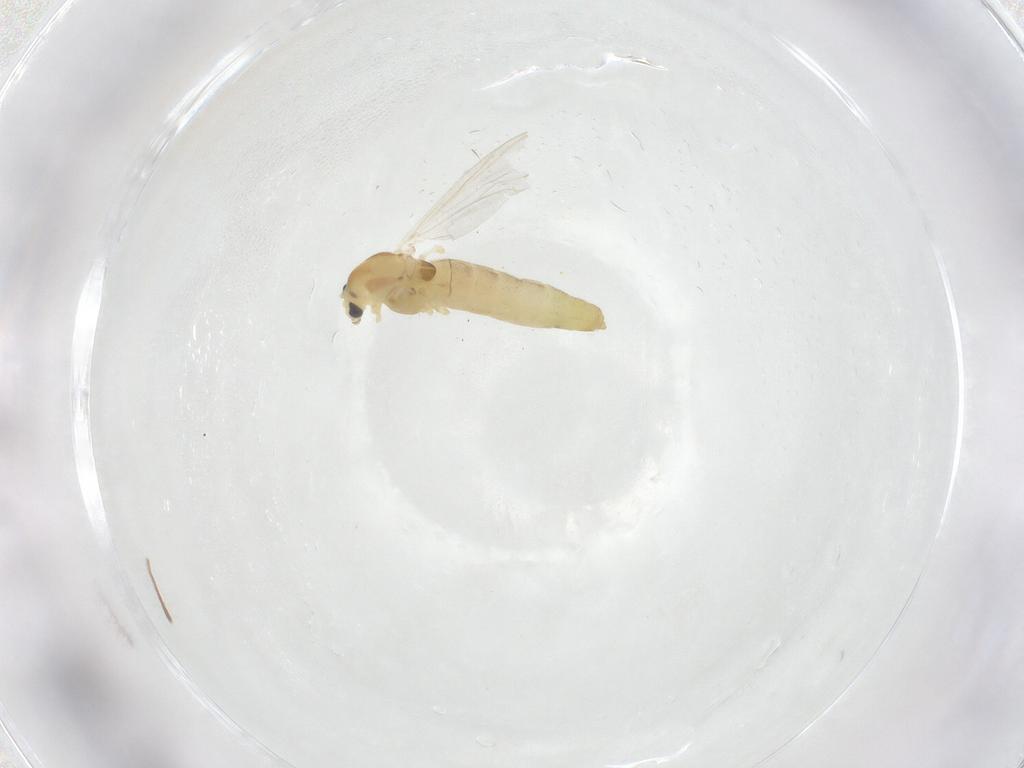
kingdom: Animalia
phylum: Arthropoda
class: Insecta
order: Diptera
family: Chironomidae
